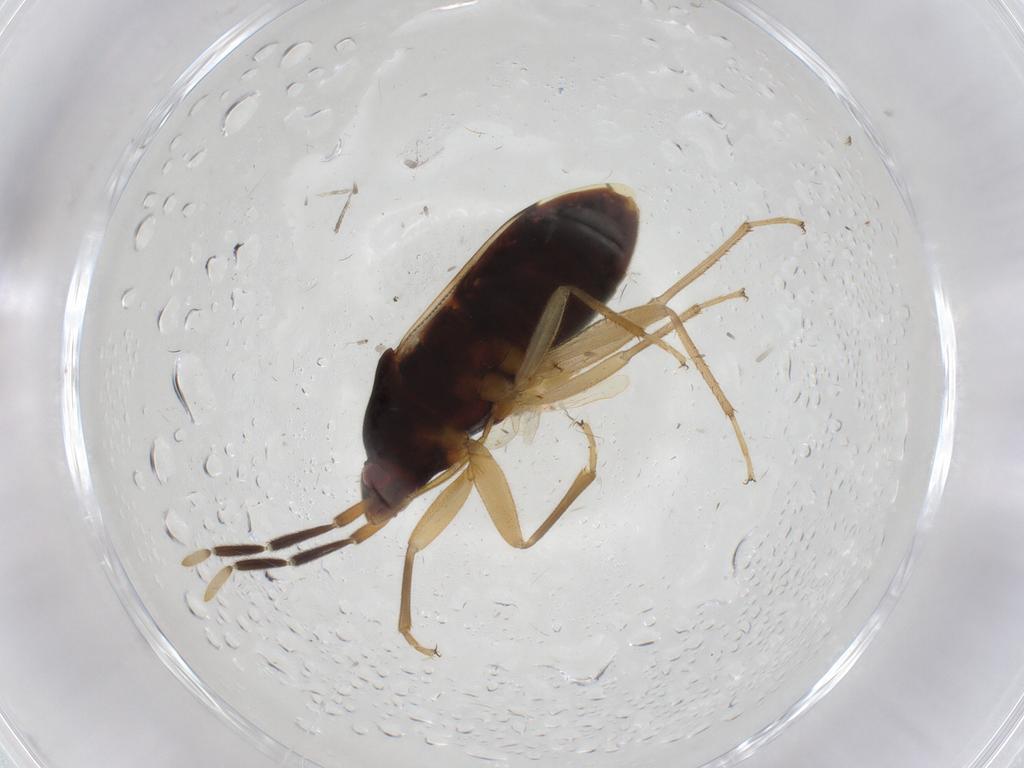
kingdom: Animalia
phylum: Arthropoda
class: Insecta
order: Hemiptera
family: Rhyparochromidae
